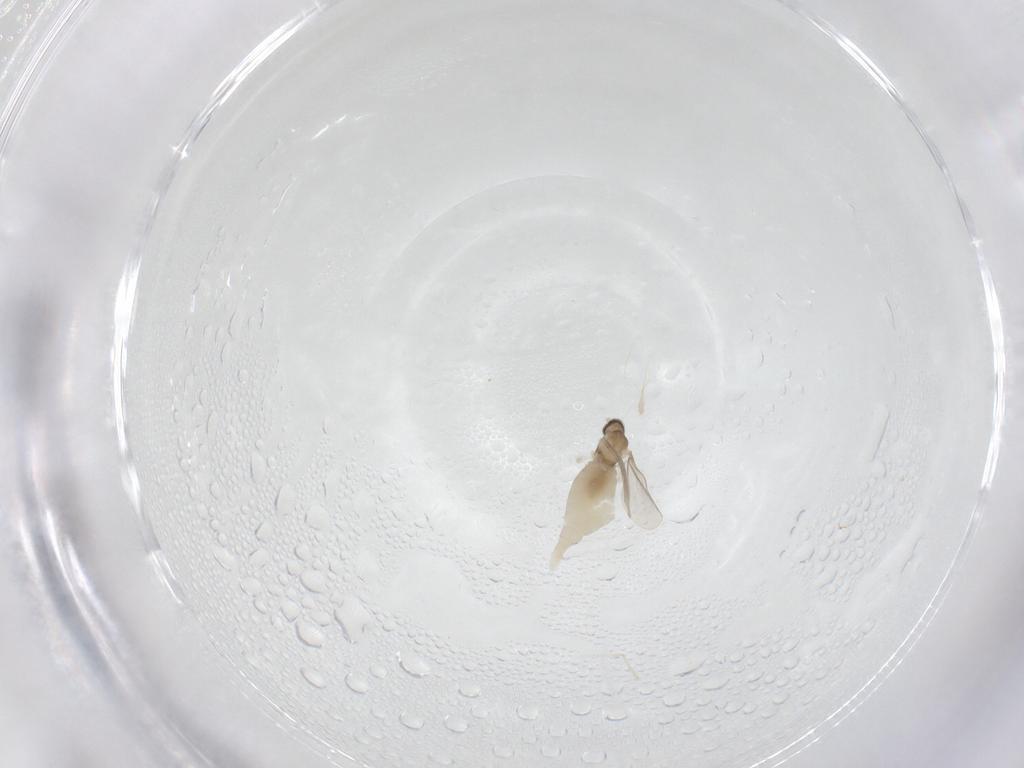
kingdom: Animalia
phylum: Arthropoda
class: Insecta
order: Diptera
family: Cecidomyiidae
